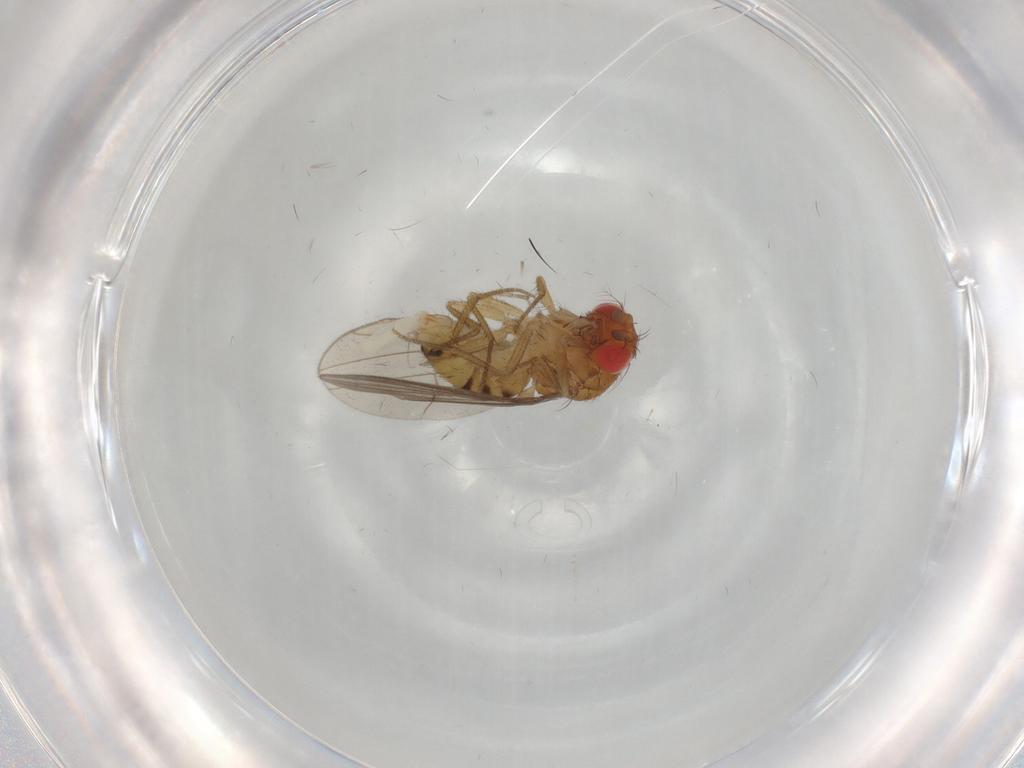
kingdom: Animalia
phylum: Arthropoda
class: Insecta
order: Diptera
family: Drosophilidae
